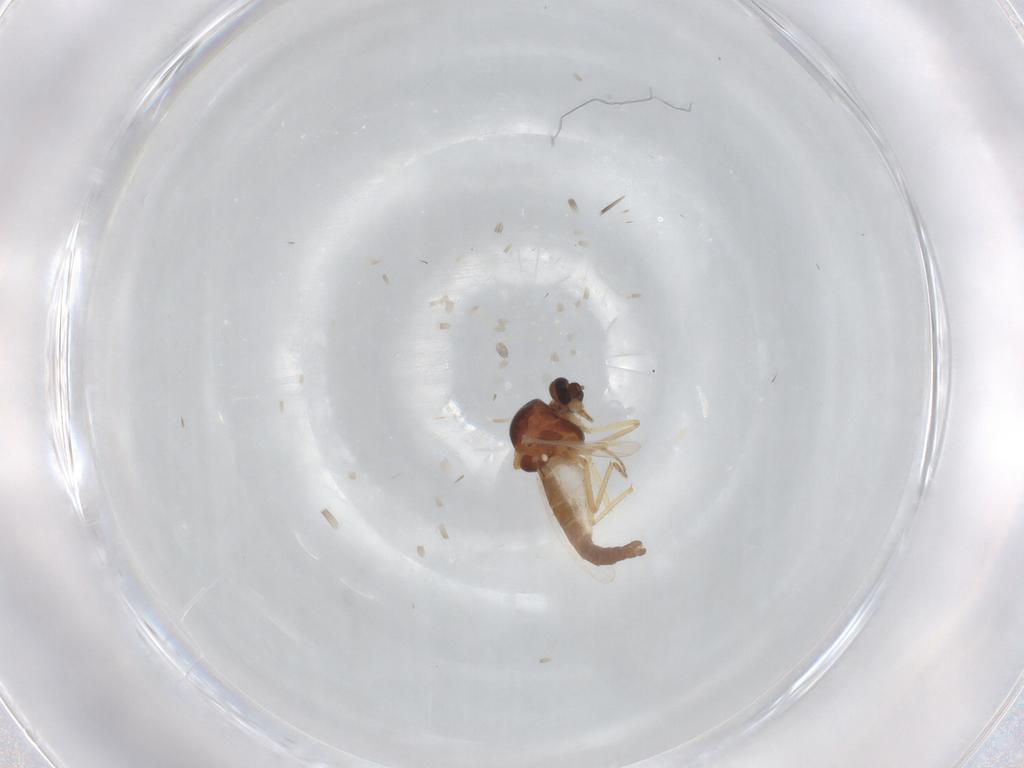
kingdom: Animalia
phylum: Arthropoda
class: Insecta
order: Diptera
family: Ceratopogonidae
